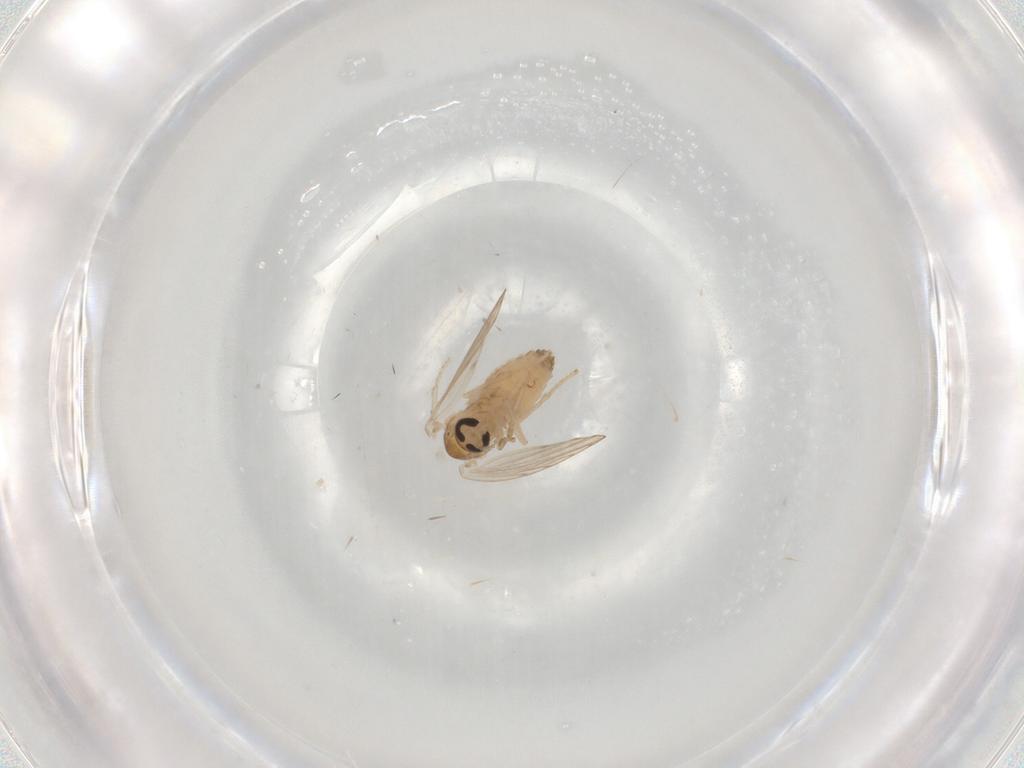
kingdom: Animalia
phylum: Arthropoda
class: Insecta
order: Diptera
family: Psychodidae
